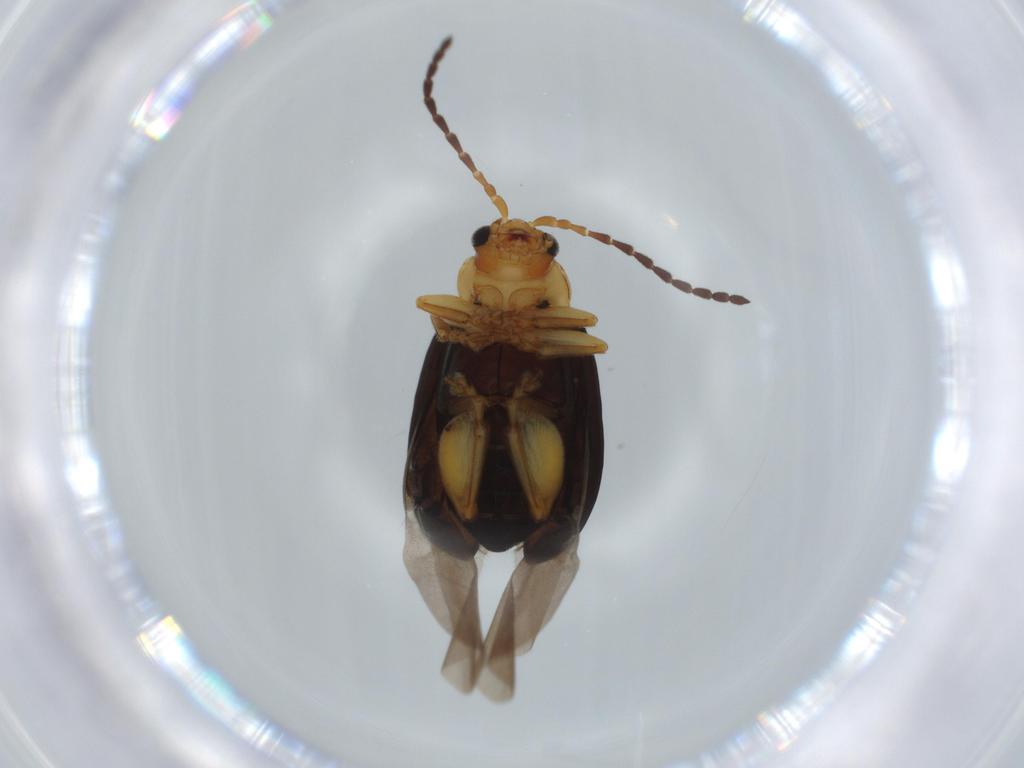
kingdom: Animalia
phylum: Arthropoda
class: Insecta
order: Coleoptera
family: Chrysomelidae
